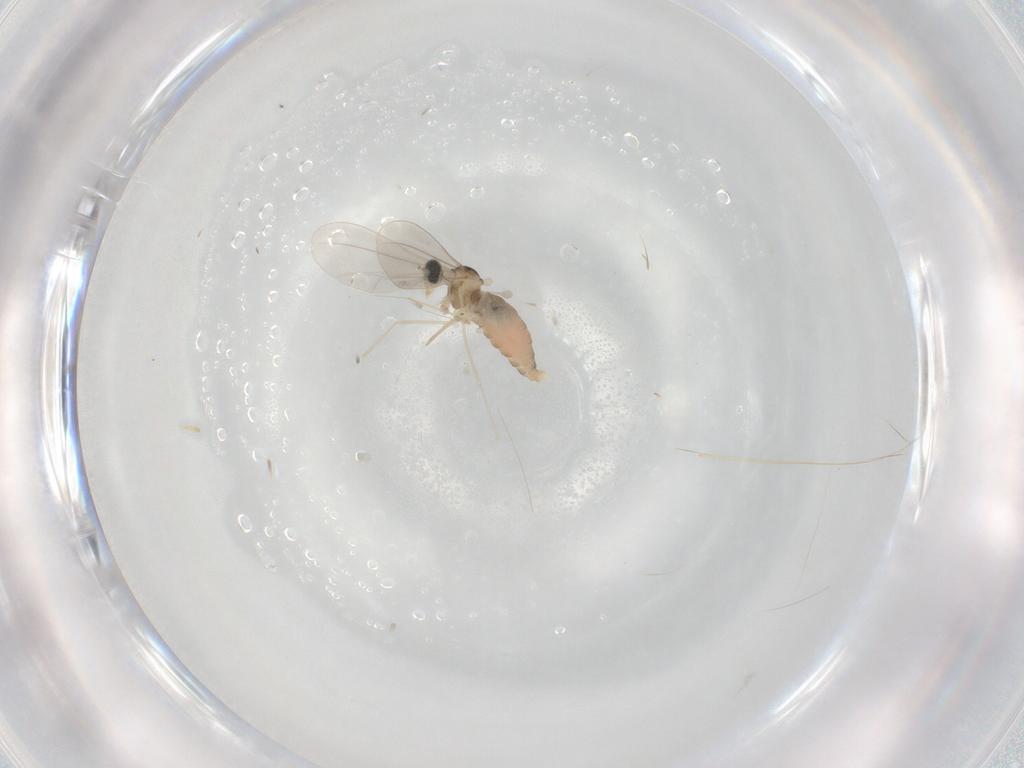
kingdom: Animalia
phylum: Arthropoda
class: Insecta
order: Diptera
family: Cecidomyiidae
